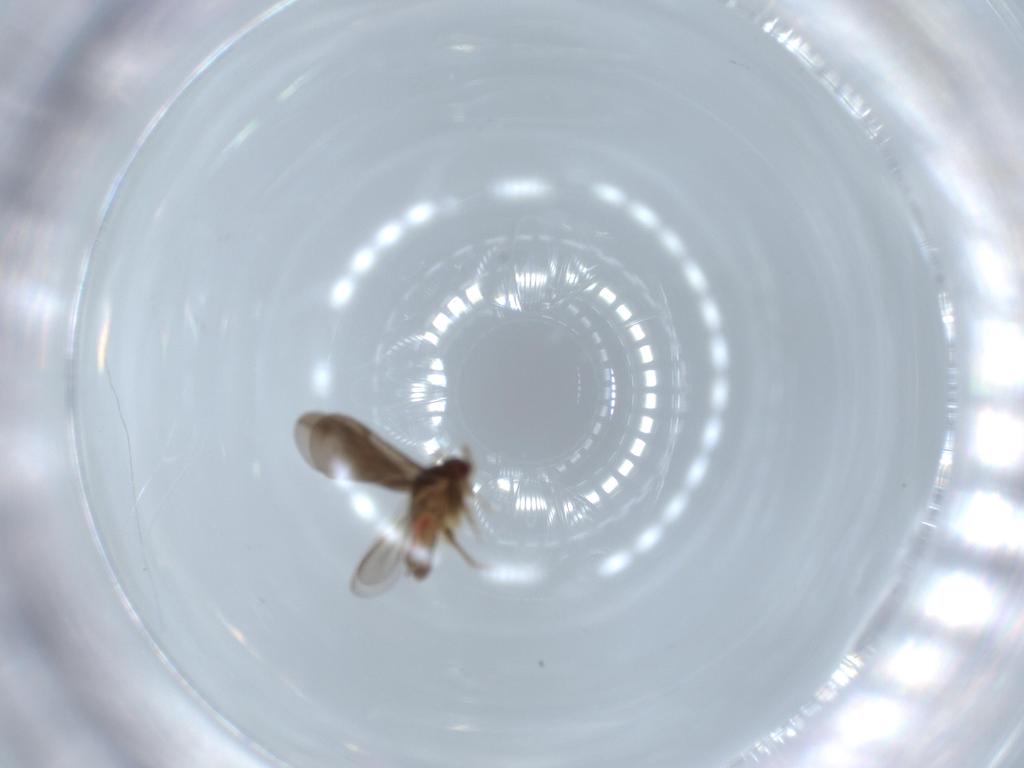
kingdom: Animalia
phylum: Arthropoda
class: Insecta
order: Hemiptera
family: Ceratocombidae
